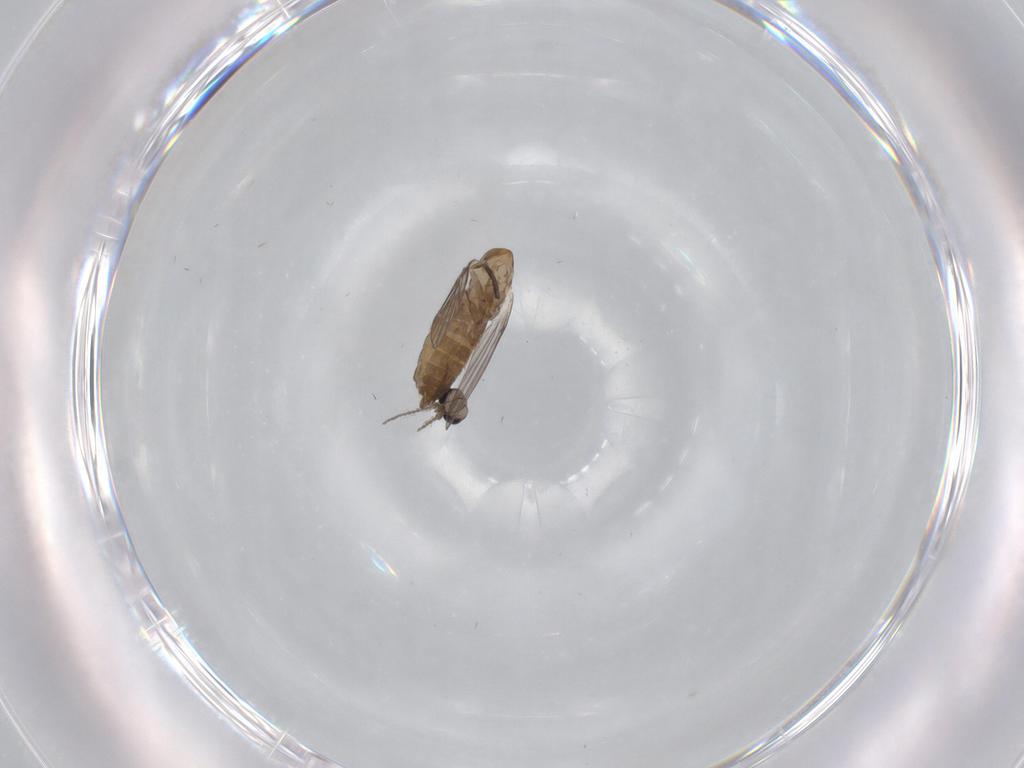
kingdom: Animalia
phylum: Arthropoda
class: Insecta
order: Diptera
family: Psychodidae
